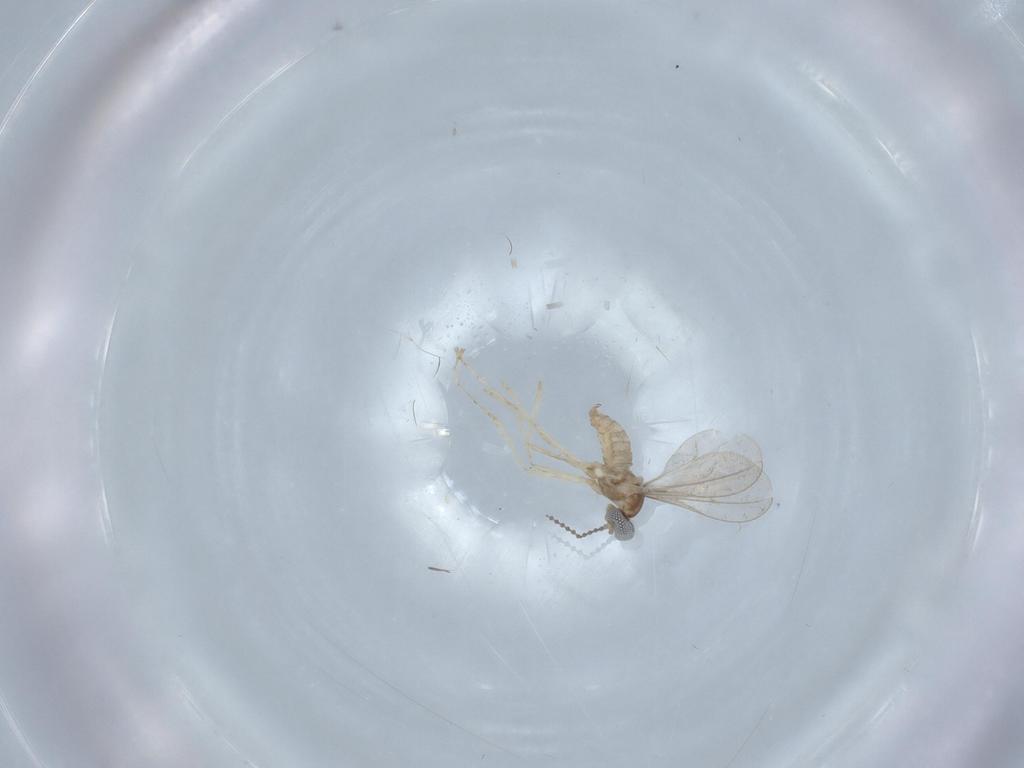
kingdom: Animalia
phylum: Arthropoda
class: Insecta
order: Diptera
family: Cecidomyiidae
